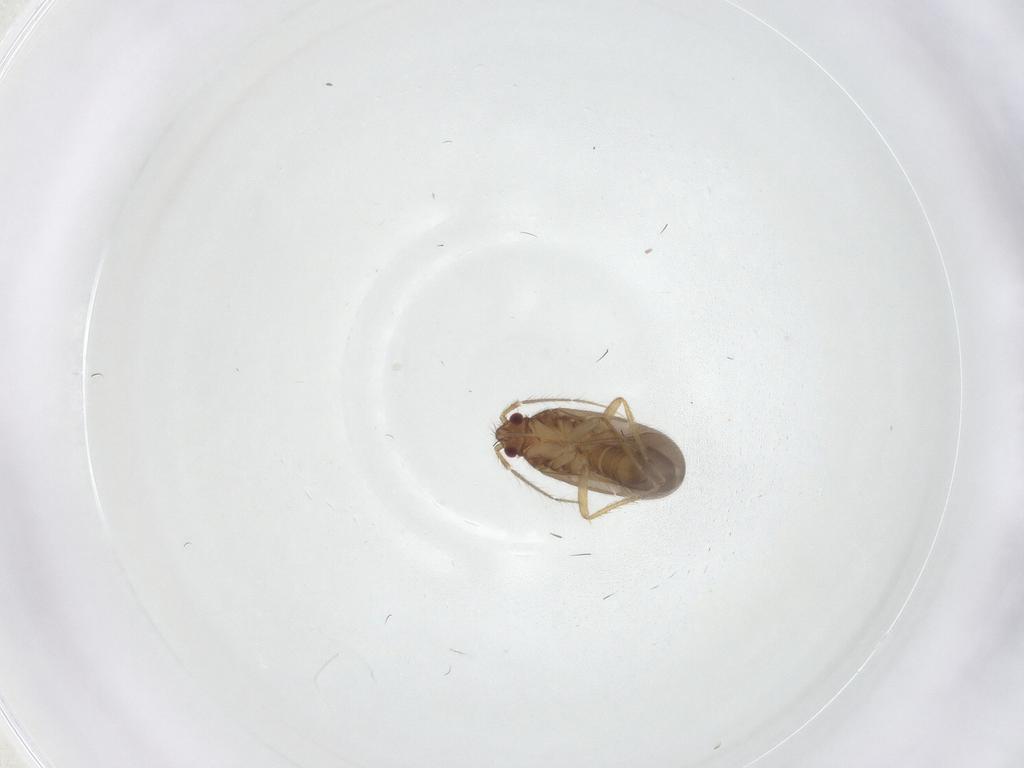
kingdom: Animalia
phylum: Arthropoda
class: Insecta
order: Hemiptera
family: Ceratocombidae
